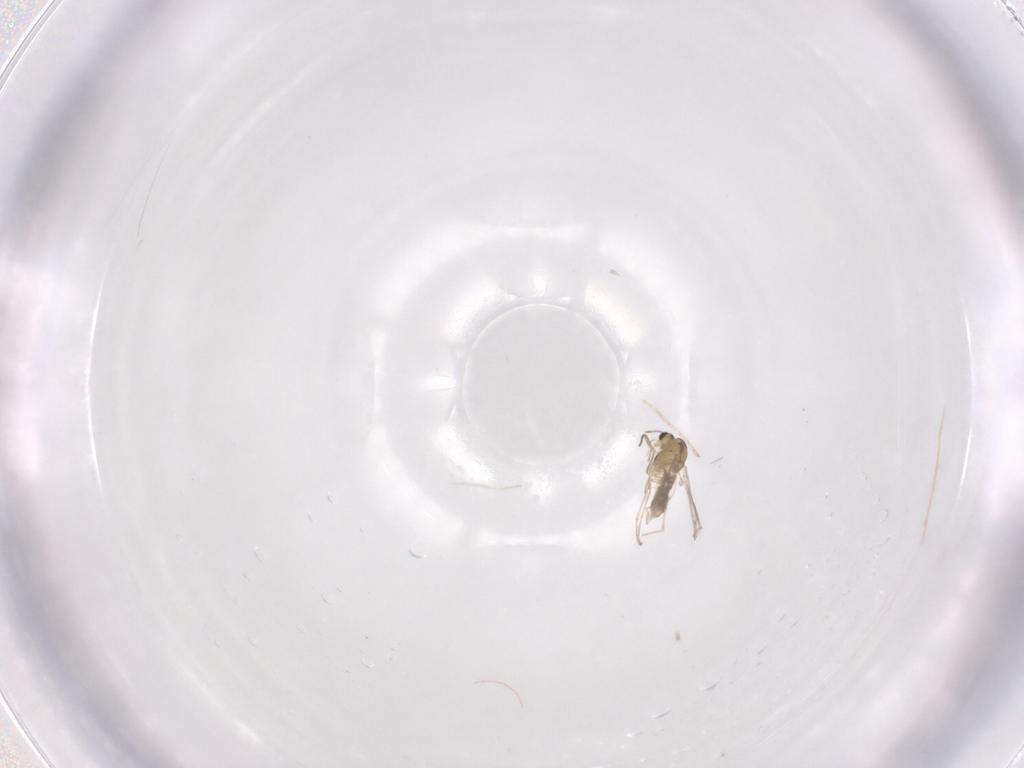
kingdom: Animalia
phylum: Arthropoda
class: Insecta
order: Diptera
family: Cecidomyiidae
